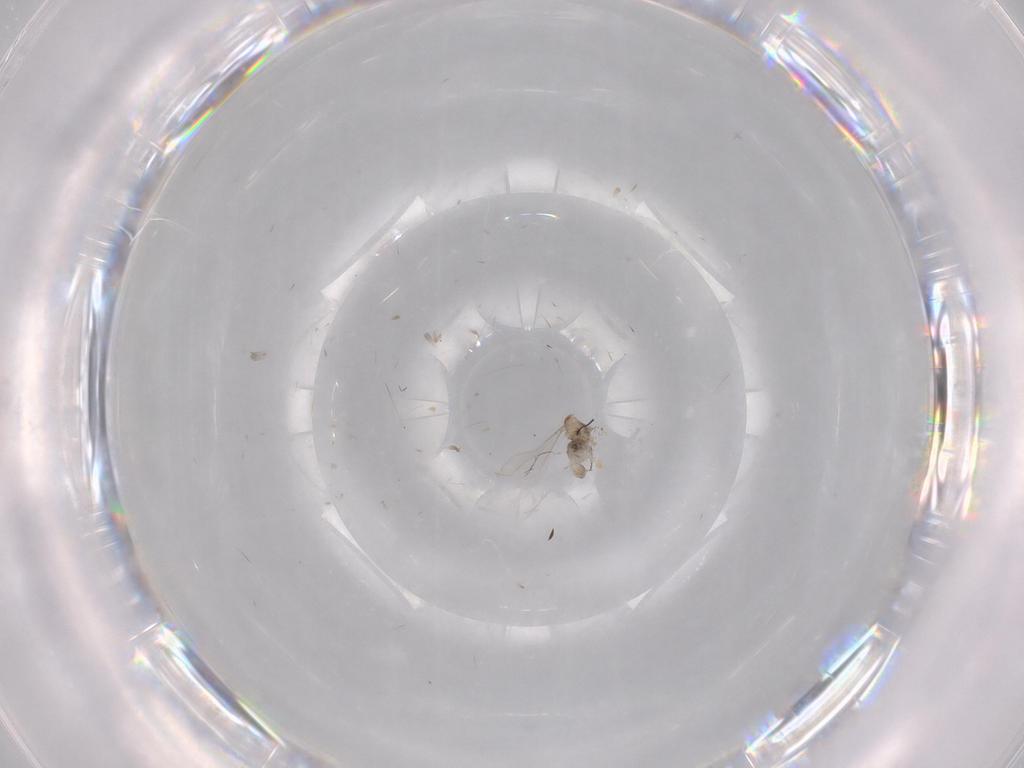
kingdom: Animalia
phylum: Arthropoda
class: Insecta
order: Diptera
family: Cecidomyiidae
